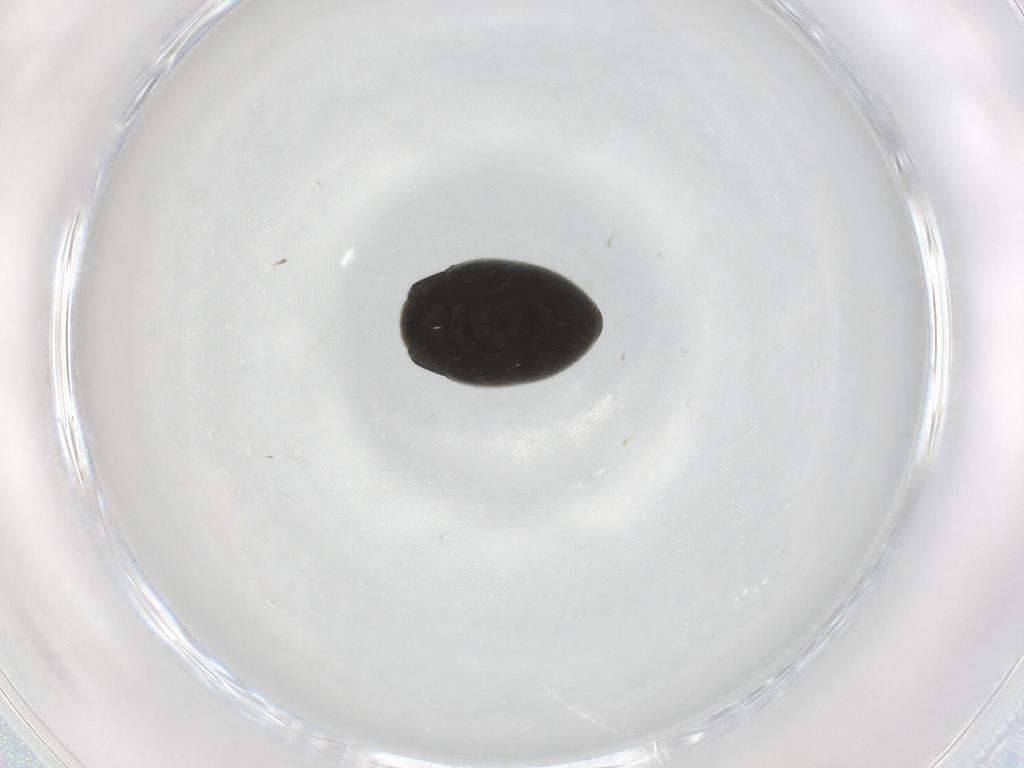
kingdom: Animalia
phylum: Arthropoda
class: Insecta
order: Coleoptera
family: Limnichidae
